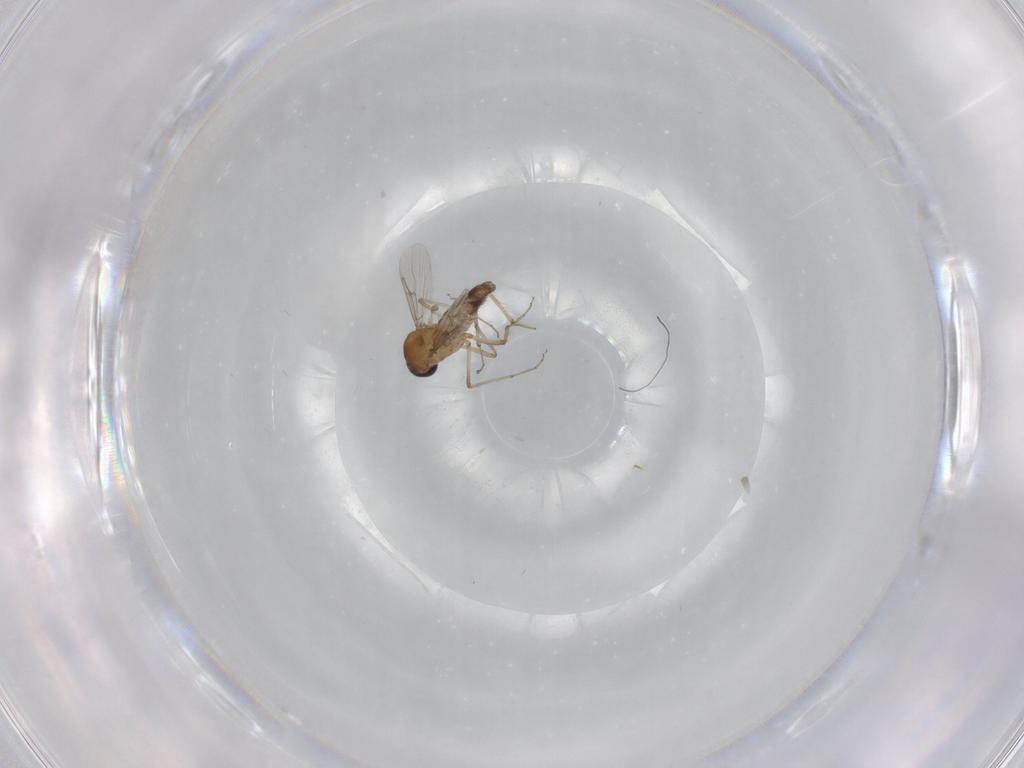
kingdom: Animalia
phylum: Arthropoda
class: Insecta
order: Diptera
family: Ceratopogonidae
